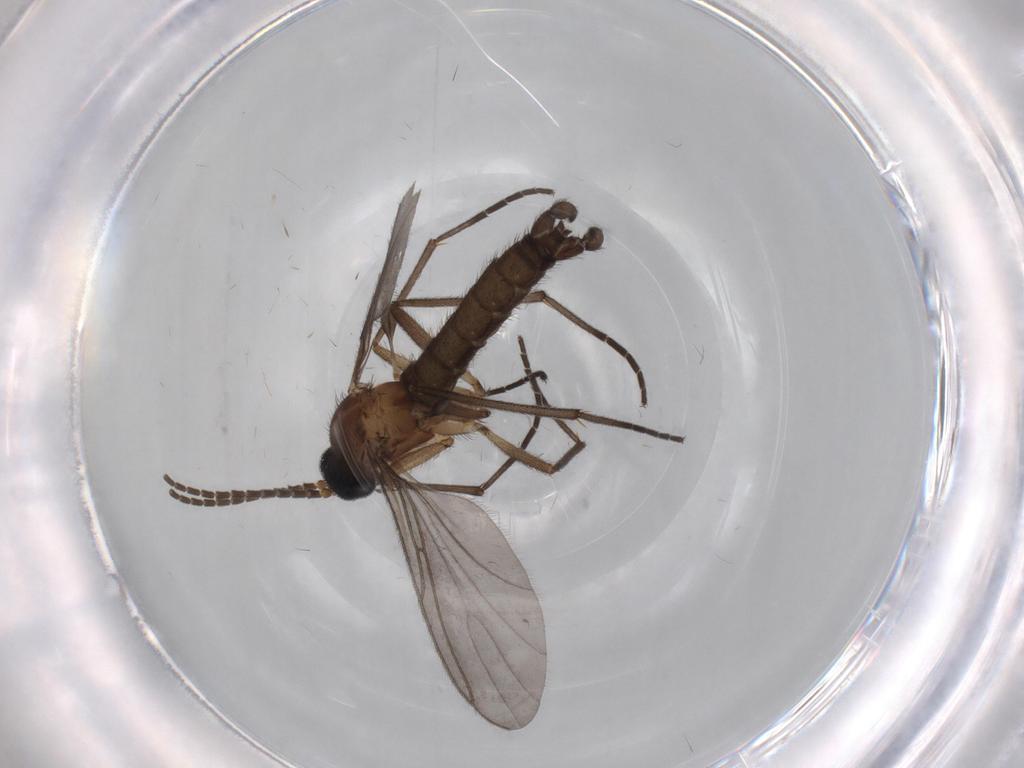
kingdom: Animalia
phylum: Arthropoda
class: Insecta
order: Diptera
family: Sciaridae
